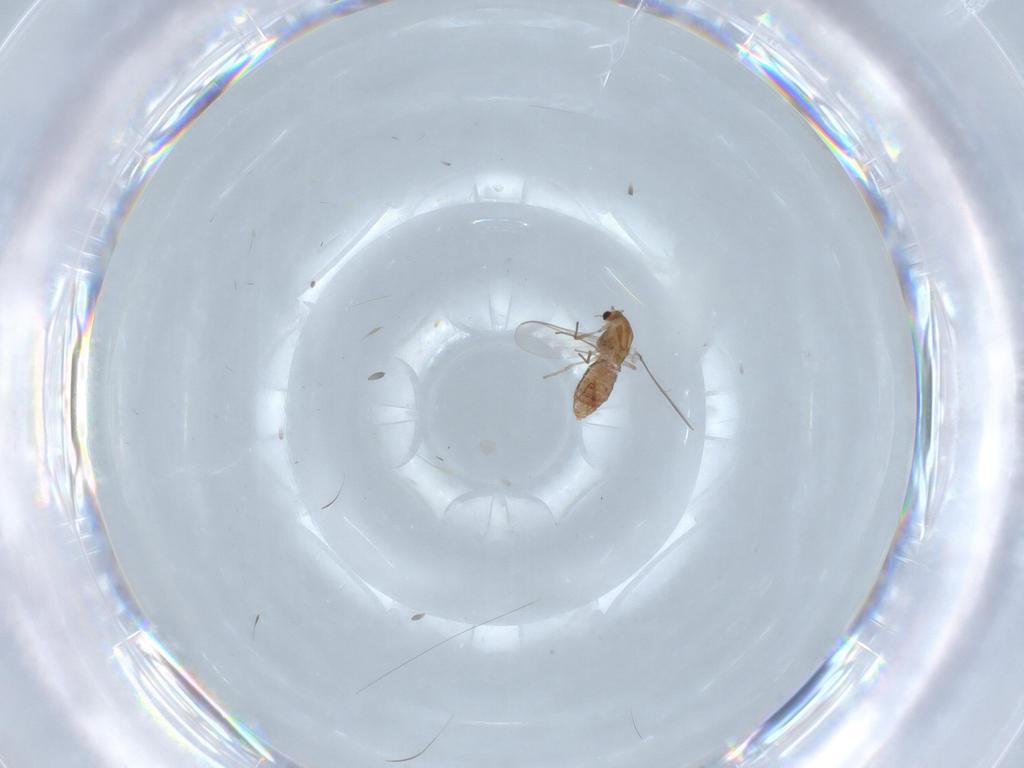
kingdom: Animalia
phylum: Arthropoda
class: Insecta
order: Diptera
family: Chironomidae
